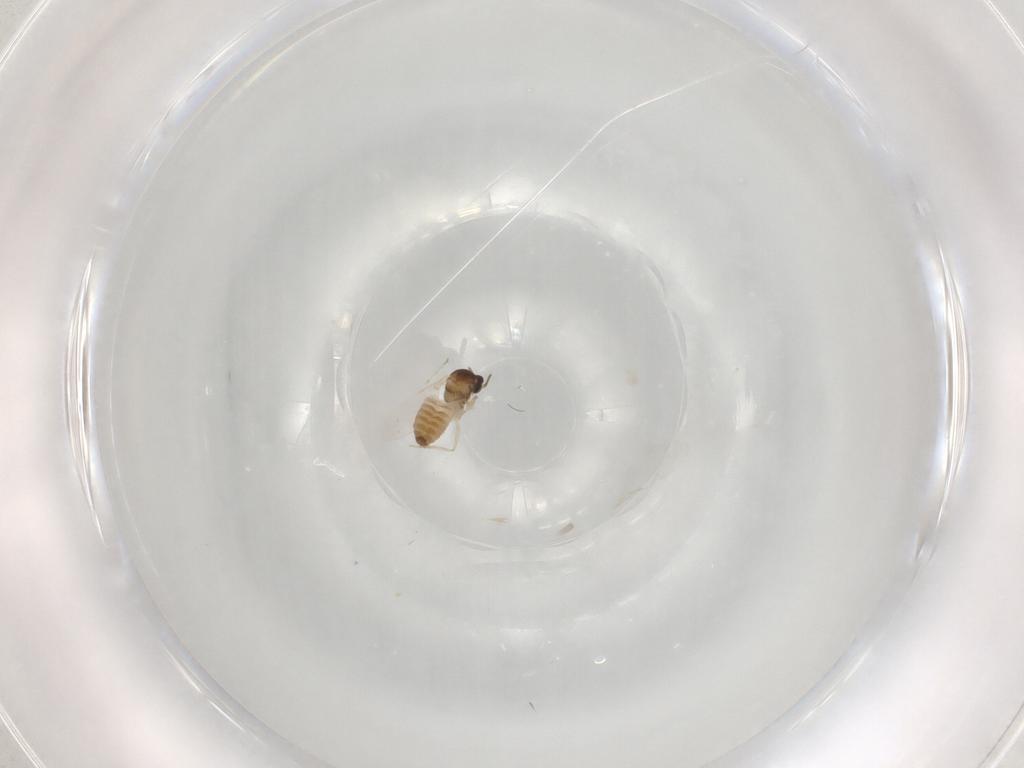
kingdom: Animalia
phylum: Arthropoda
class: Insecta
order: Diptera
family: Cecidomyiidae
